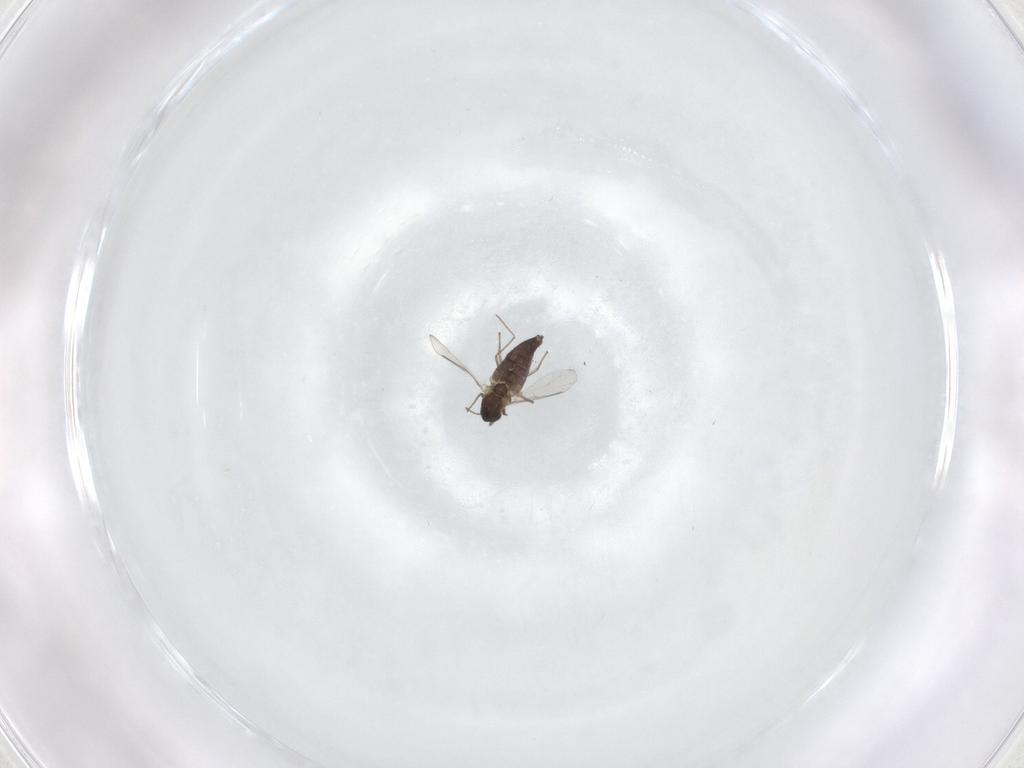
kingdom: Animalia
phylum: Arthropoda
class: Insecta
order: Diptera
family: Chironomidae
